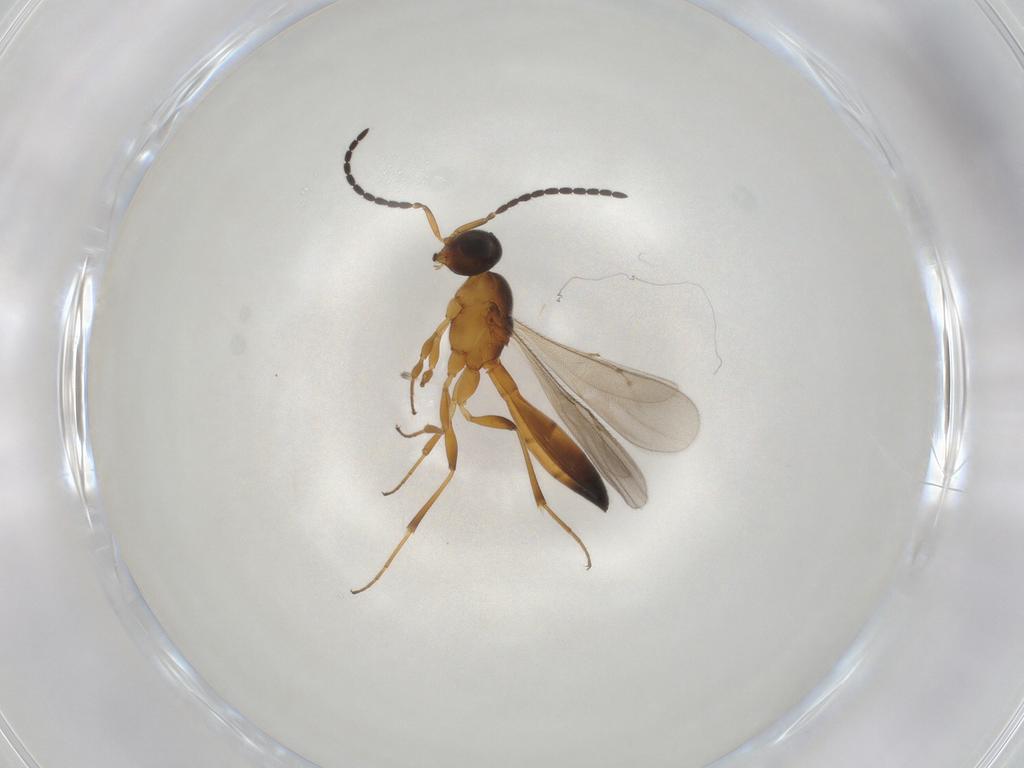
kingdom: Animalia
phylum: Arthropoda
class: Insecta
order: Hymenoptera
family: Scelionidae
